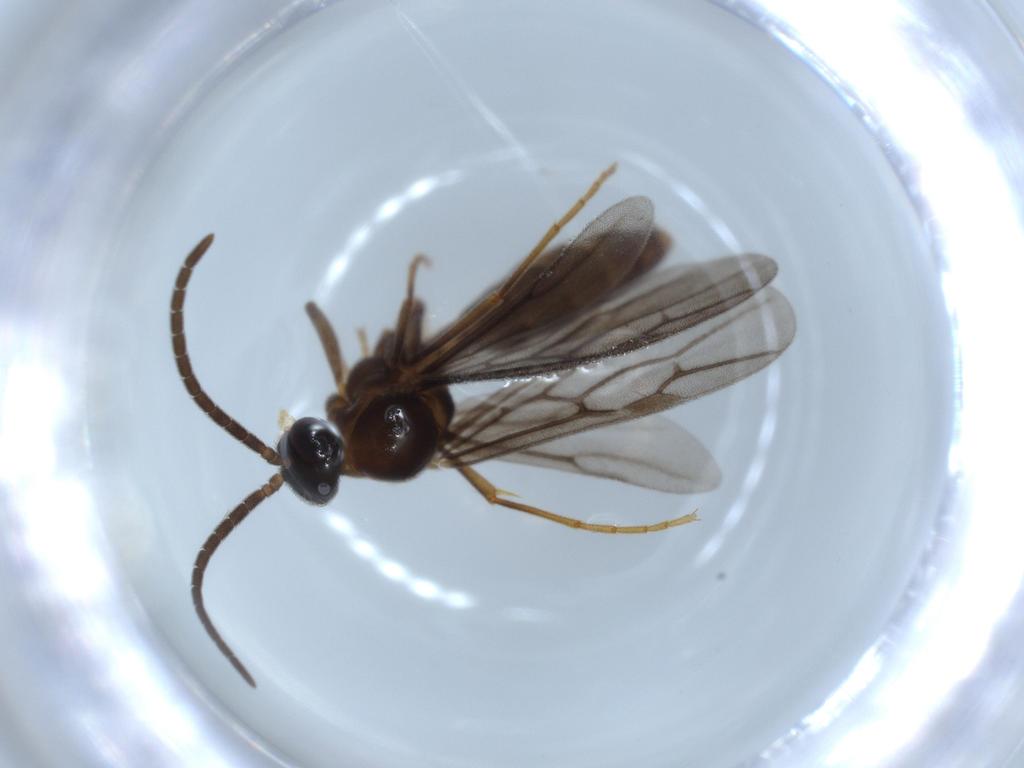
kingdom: Animalia
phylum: Arthropoda
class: Insecta
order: Hymenoptera
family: Formicidae
